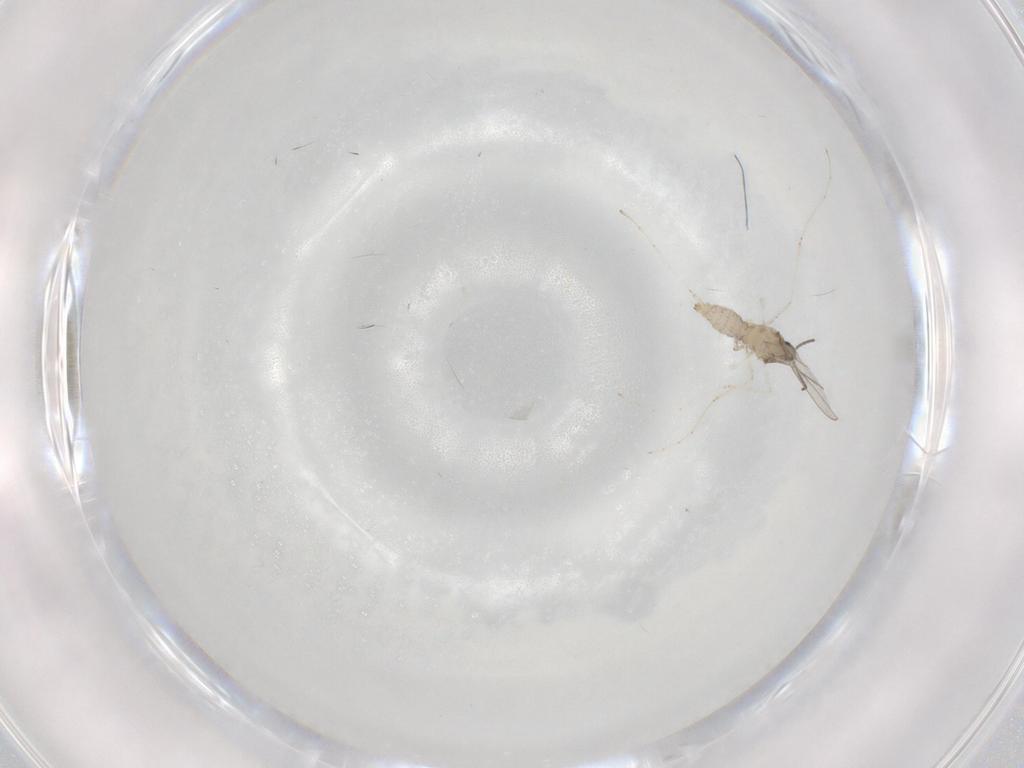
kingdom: Animalia
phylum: Arthropoda
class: Insecta
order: Diptera
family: Cecidomyiidae
